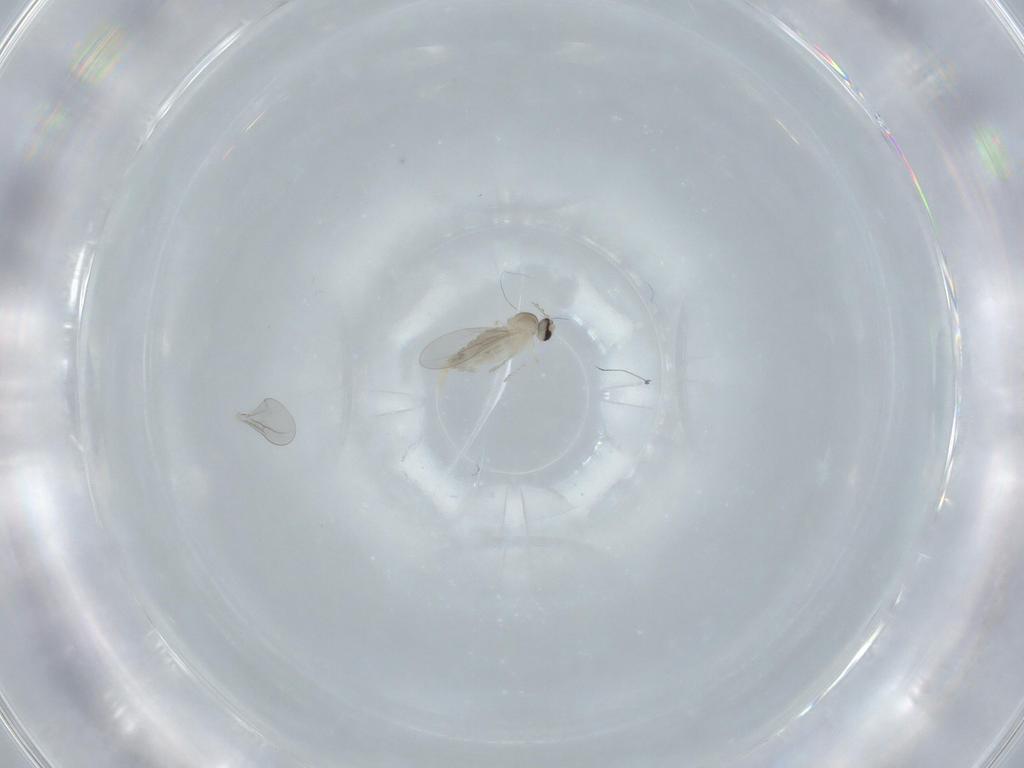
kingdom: Animalia
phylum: Arthropoda
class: Insecta
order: Diptera
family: Cecidomyiidae
